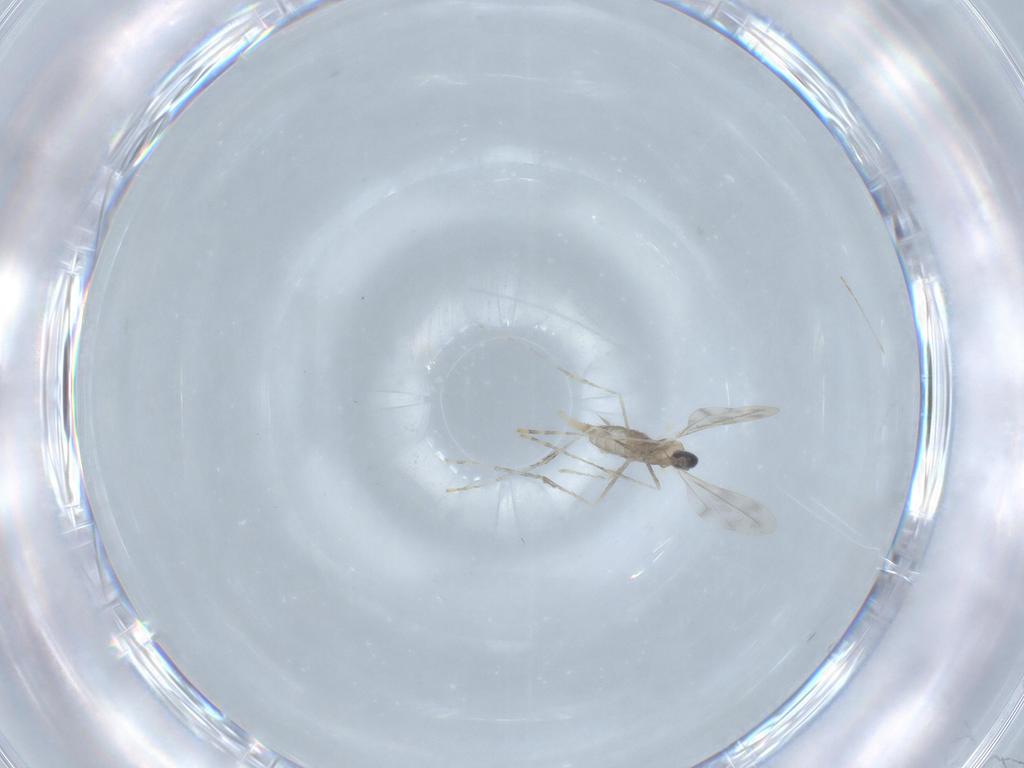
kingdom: Animalia
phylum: Arthropoda
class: Insecta
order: Diptera
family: Cecidomyiidae
